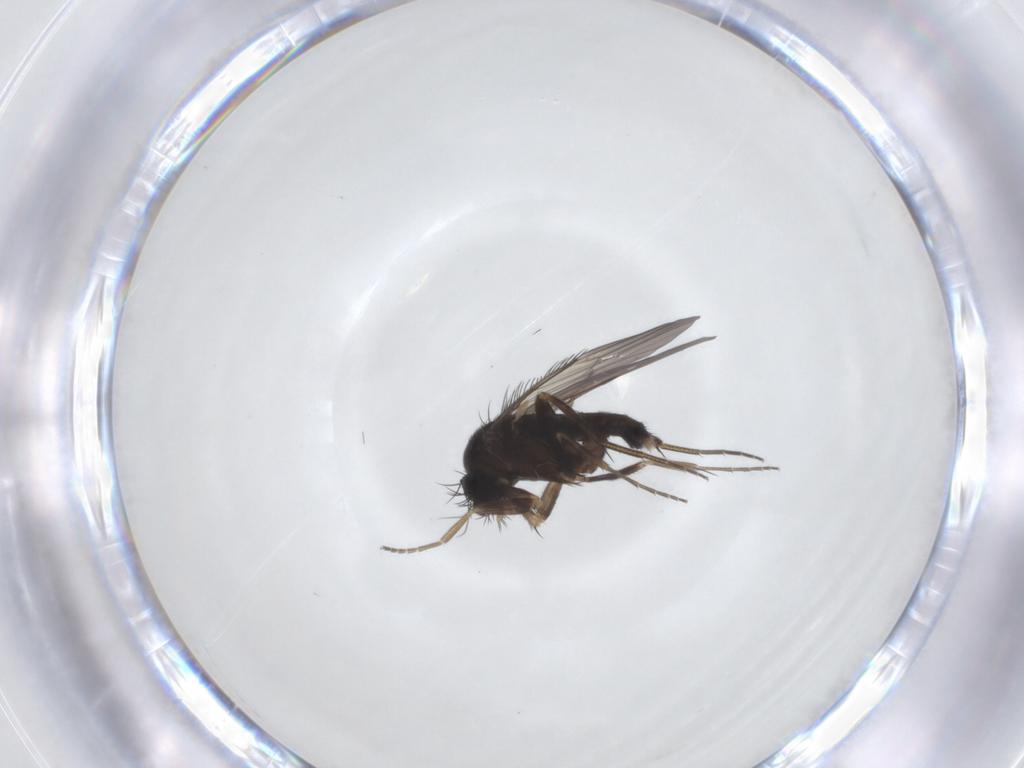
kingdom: Animalia
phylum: Arthropoda
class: Insecta
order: Diptera
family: Phoridae
